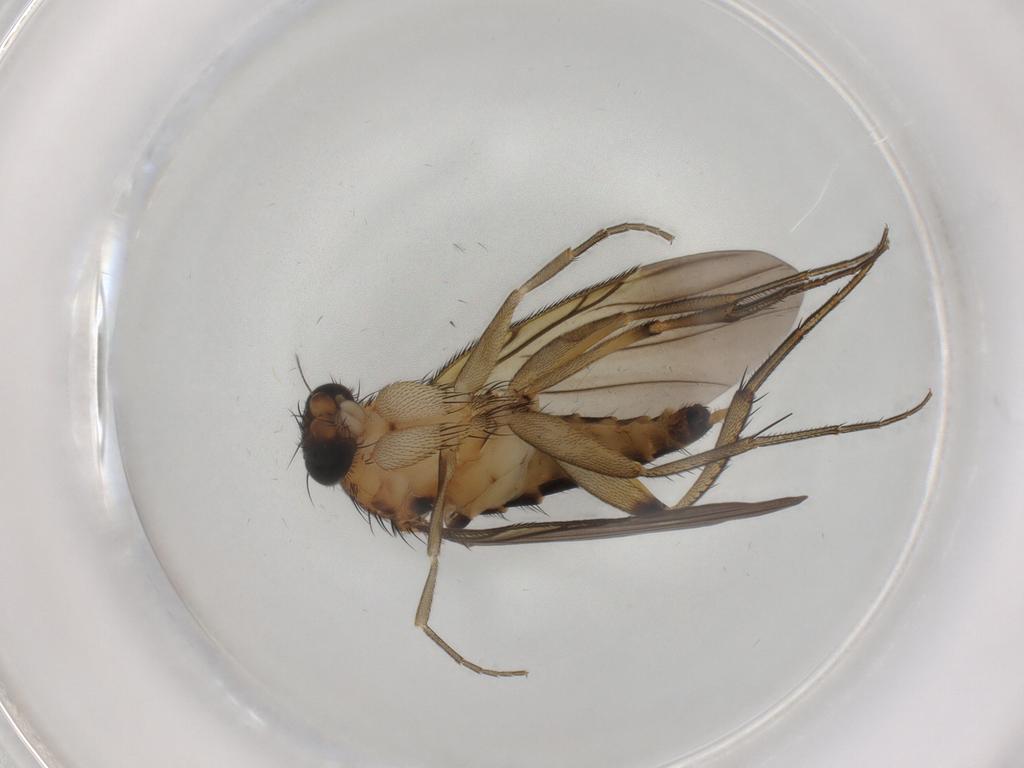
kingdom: Animalia
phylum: Arthropoda
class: Insecta
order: Diptera
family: Phoridae
